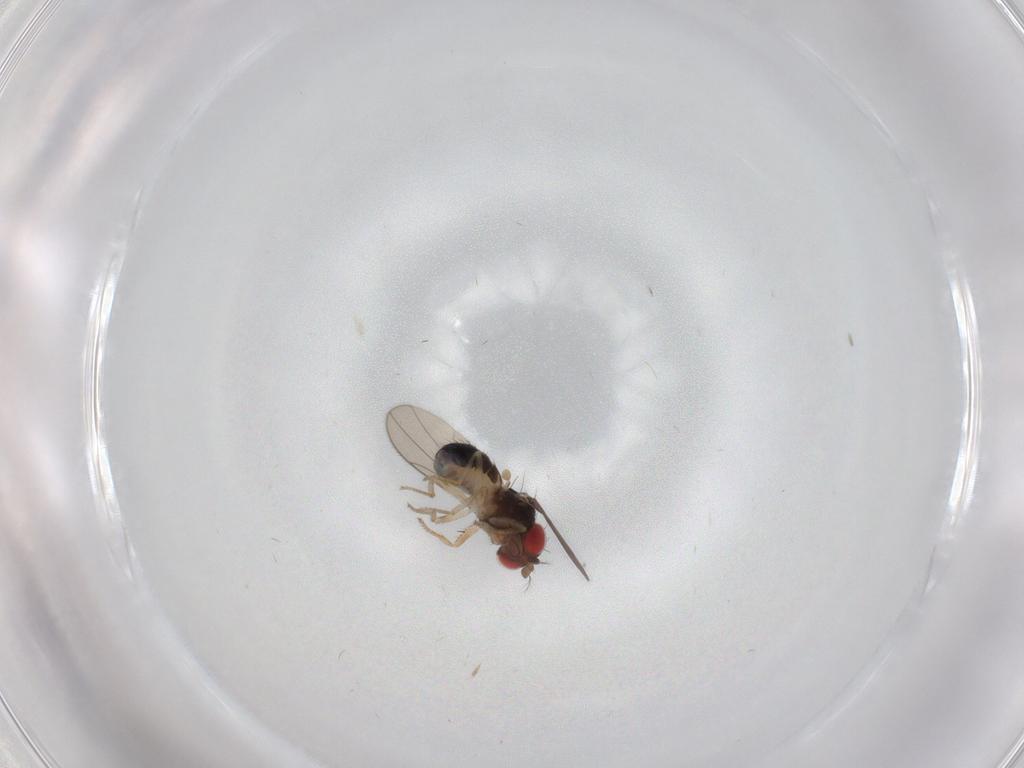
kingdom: Animalia
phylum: Arthropoda
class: Insecta
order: Diptera
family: Drosophilidae
